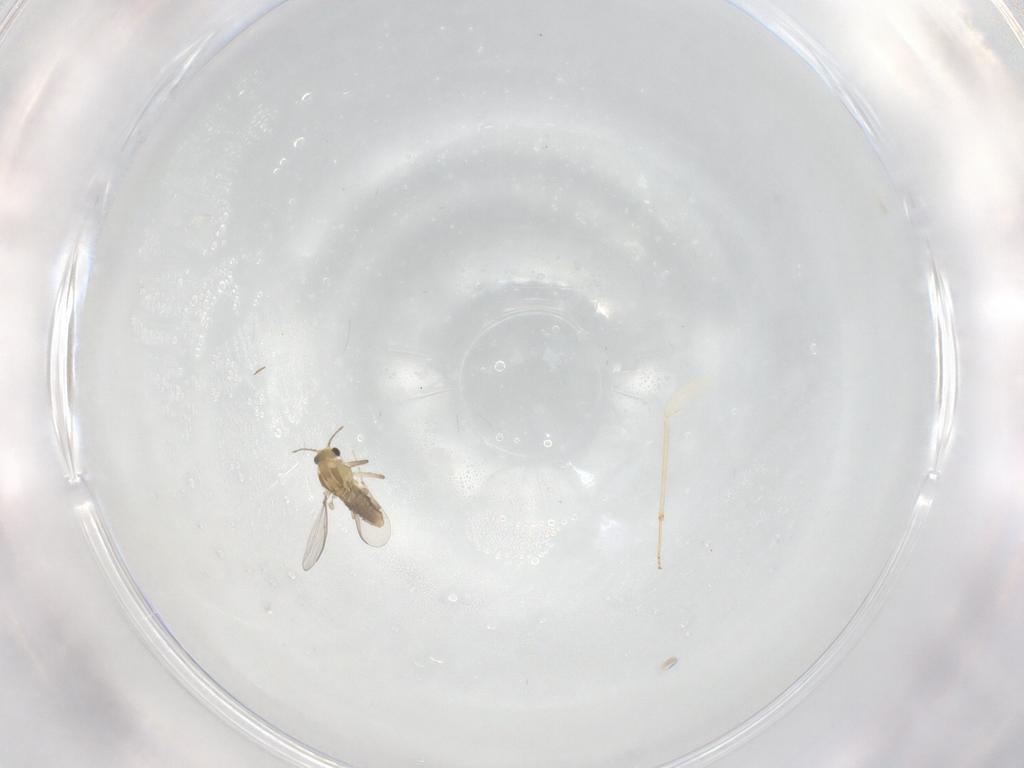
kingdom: Animalia
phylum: Arthropoda
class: Insecta
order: Diptera
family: Chironomidae
